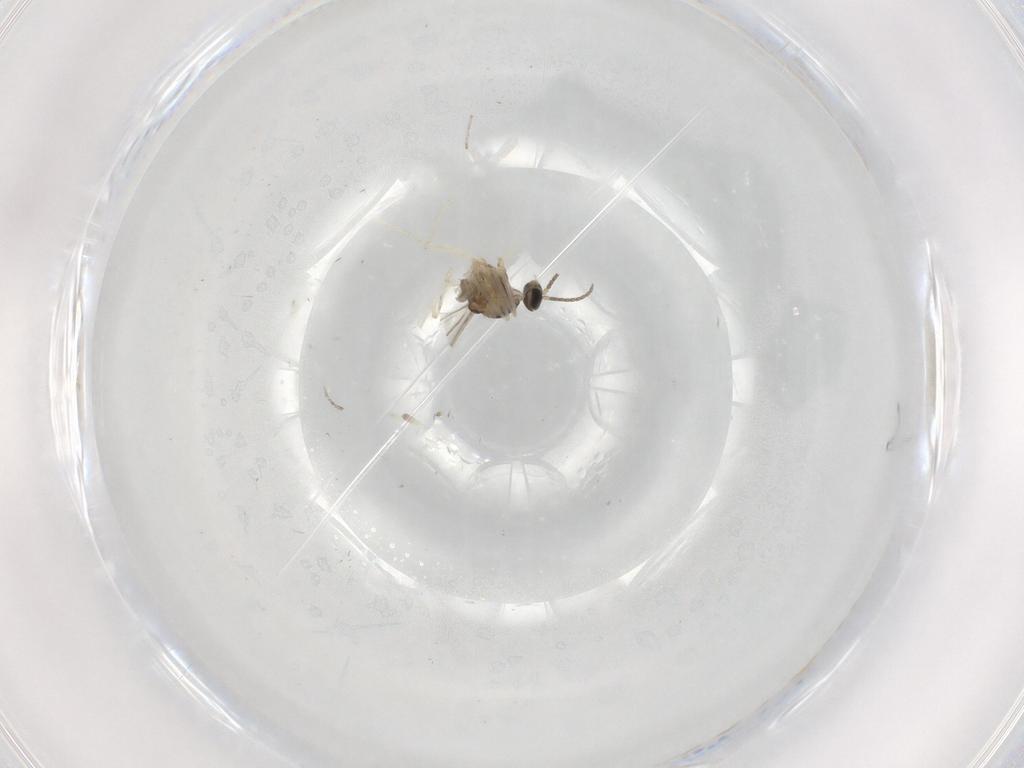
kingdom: Animalia
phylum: Arthropoda
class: Insecta
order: Diptera
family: Cecidomyiidae
